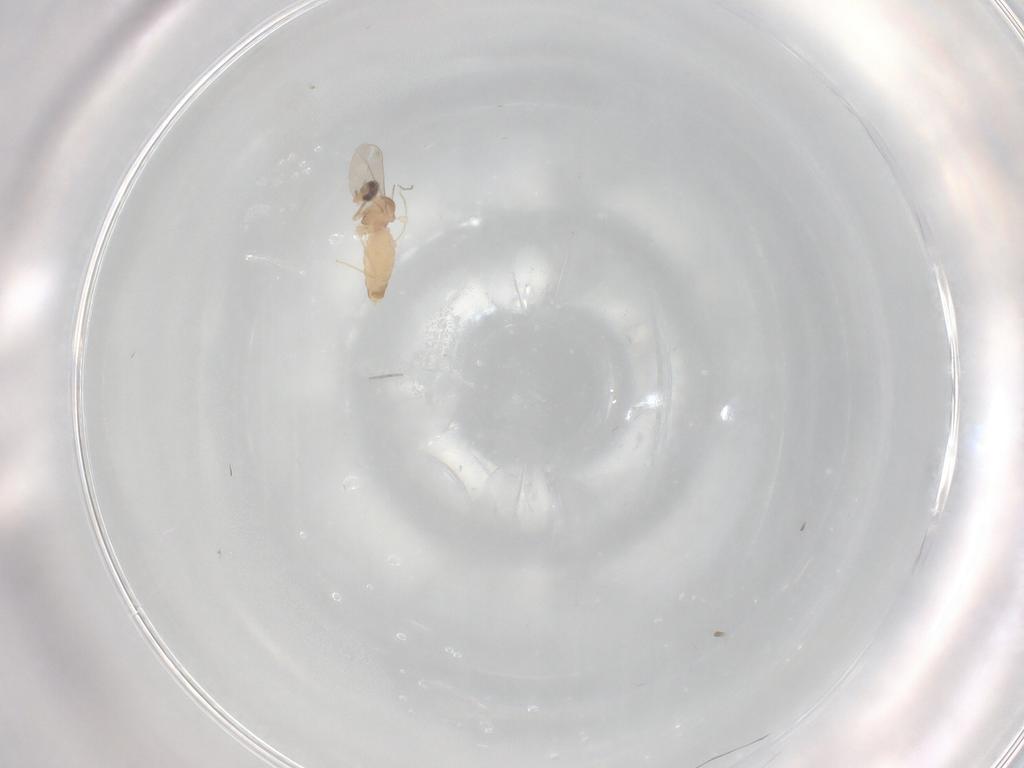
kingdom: Animalia
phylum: Arthropoda
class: Insecta
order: Diptera
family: Cecidomyiidae
